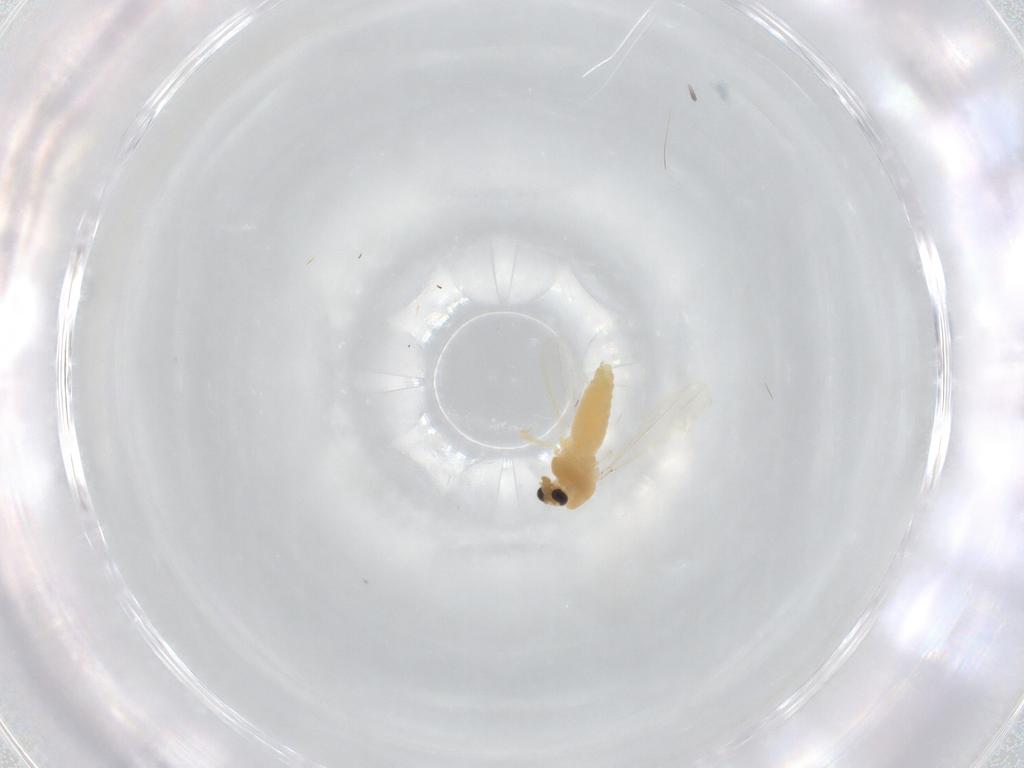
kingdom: Animalia
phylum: Arthropoda
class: Insecta
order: Diptera
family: Chironomidae
